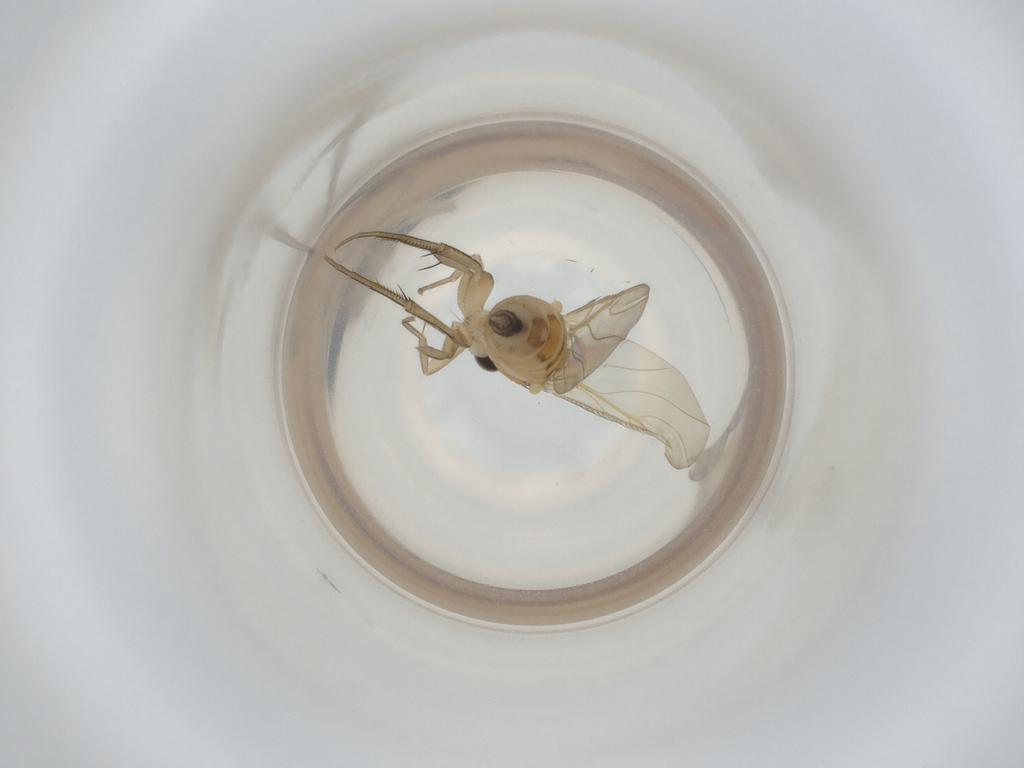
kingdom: Animalia
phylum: Arthropoda
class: Insecta
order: Diptera
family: Phoridae
